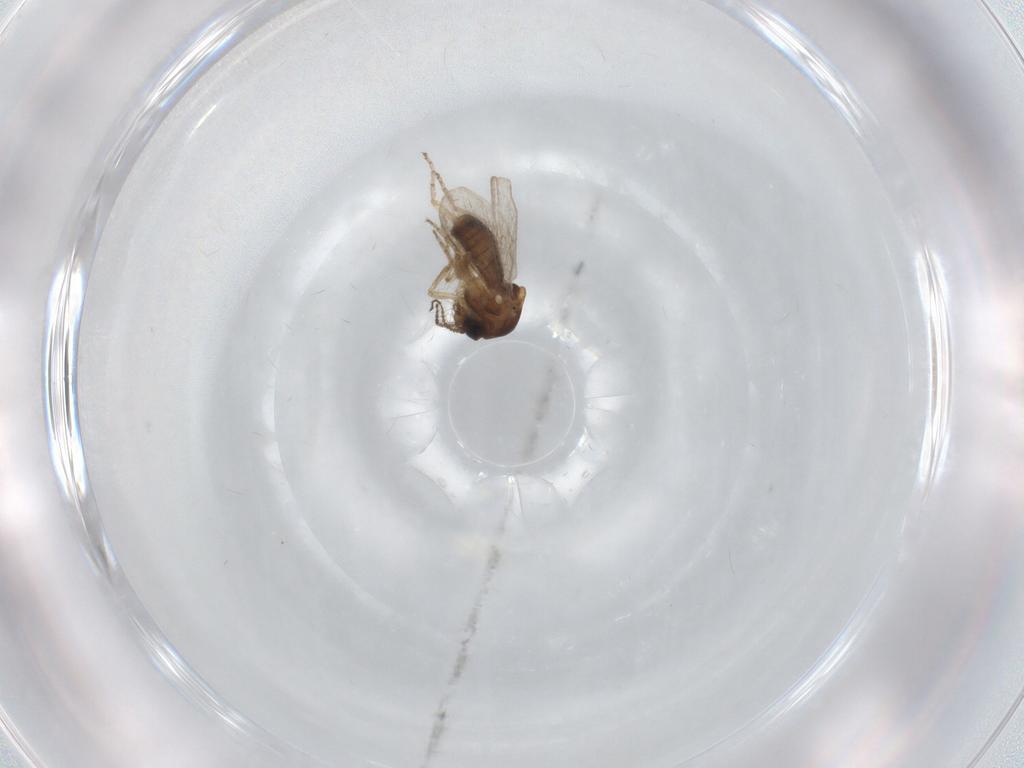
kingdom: Animalia
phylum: Arthropoda
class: Insecta
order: Diptera
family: Ceratopogonidae
